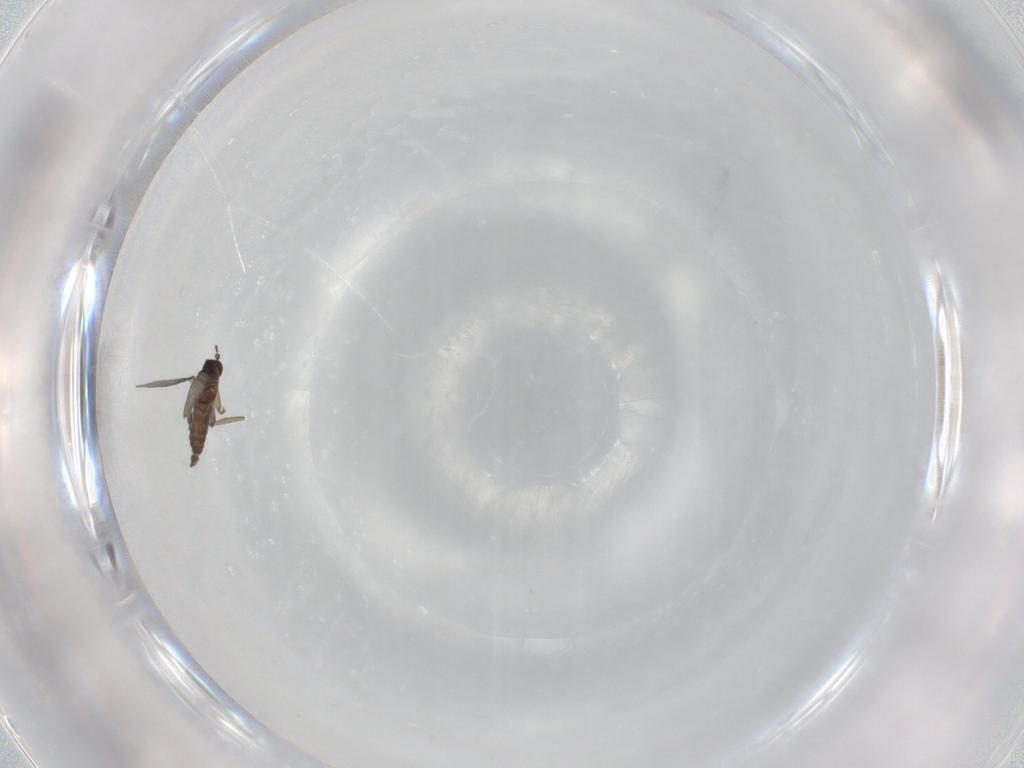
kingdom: Animalia
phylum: Arthropoda
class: Insecta
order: Diptera
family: Sciaridae
